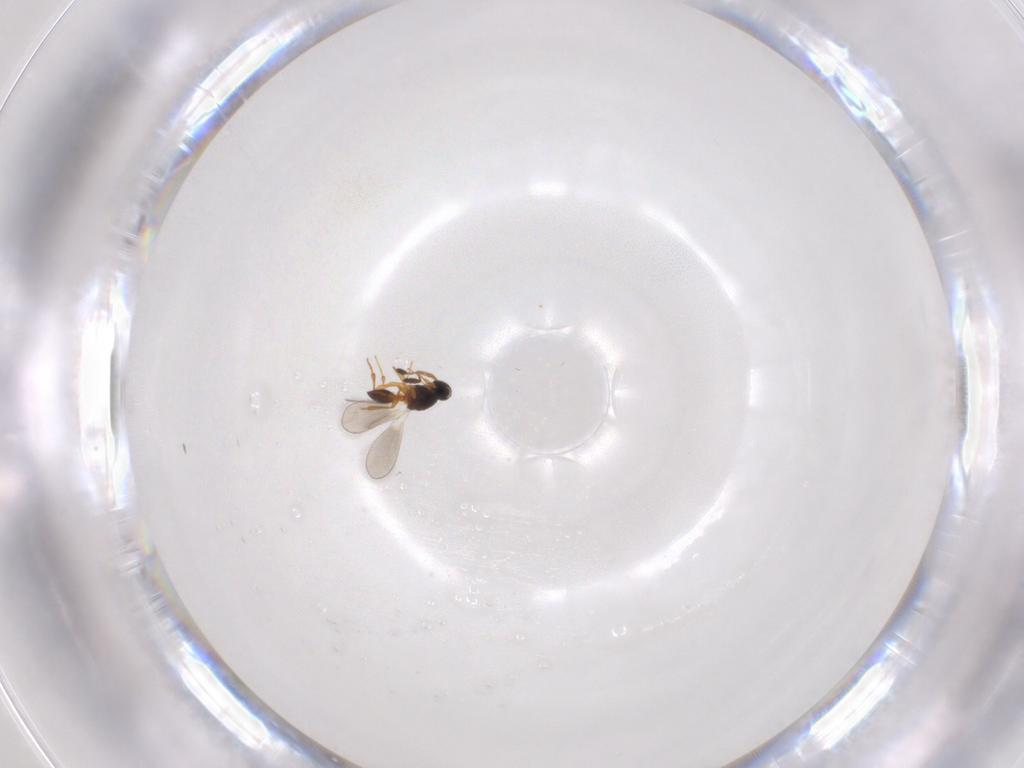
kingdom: Animalia
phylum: Arthropoda
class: Insecta
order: Hymenoptera
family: Platygastridae
